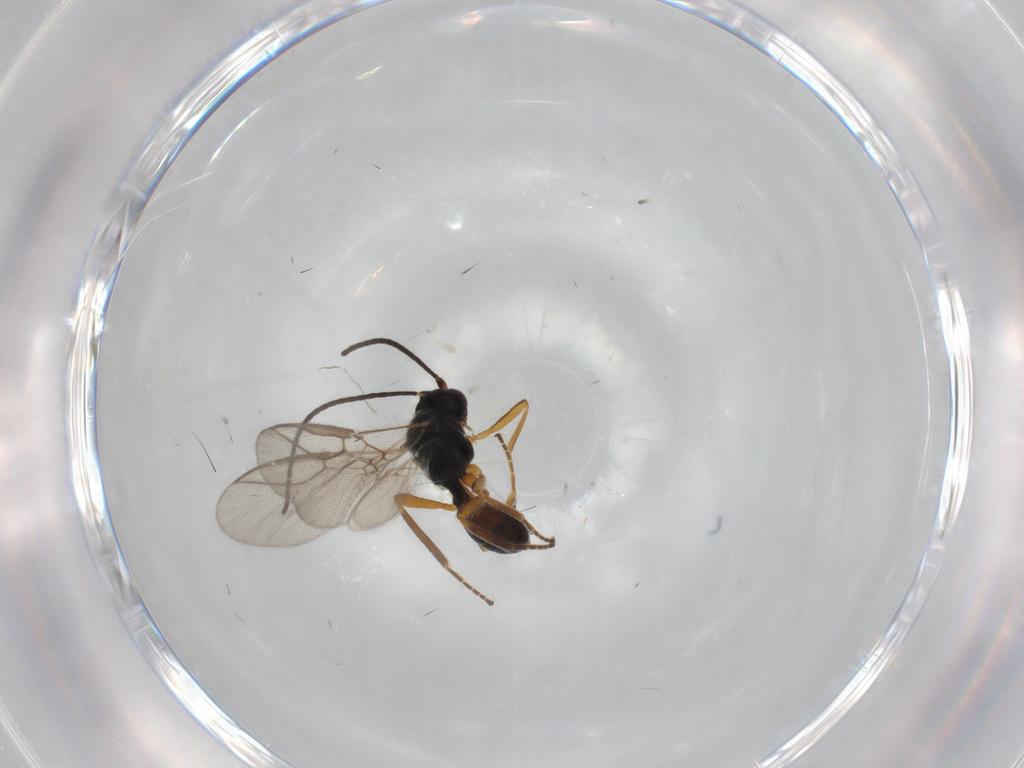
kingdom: Animalia
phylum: Arthropoda
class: Insecta
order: Hymenoptera
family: Braconidae
